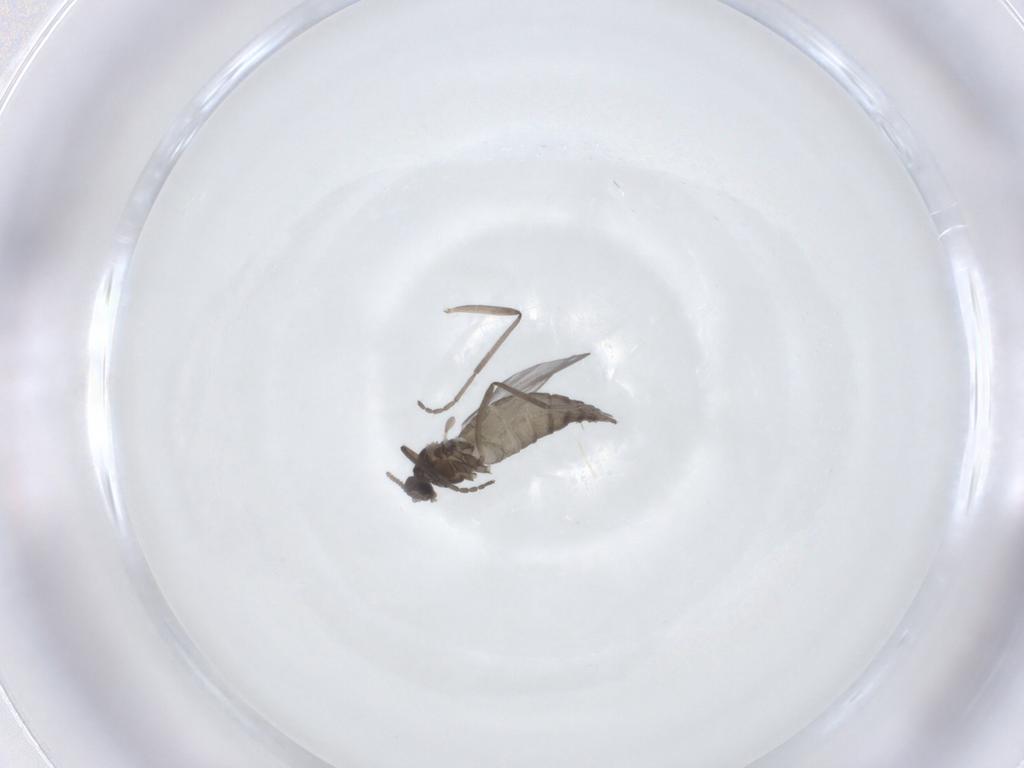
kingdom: Animalia
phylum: Arthropoda
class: Insecta
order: Diptera
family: Cecidomyiidae
